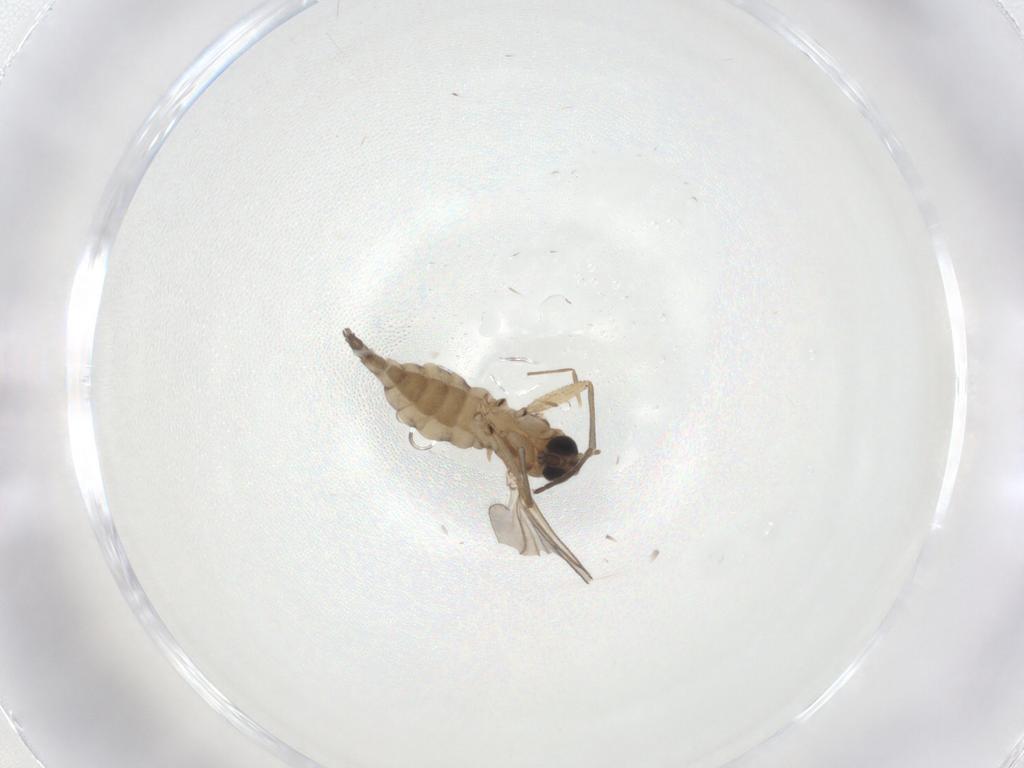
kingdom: Animalia
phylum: Arthropoda
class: Insecta
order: Diptera
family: Sciaridae
